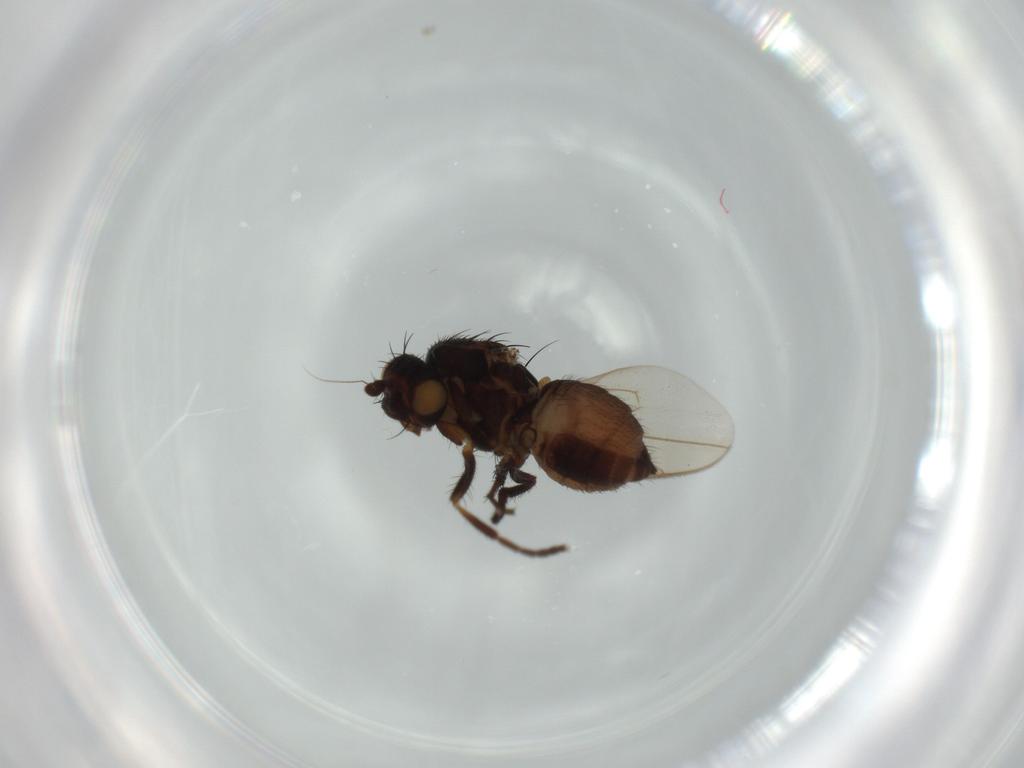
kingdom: Animalia
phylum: Arthropoda
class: Insecta
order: Diptera
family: Sphaeroceridae
